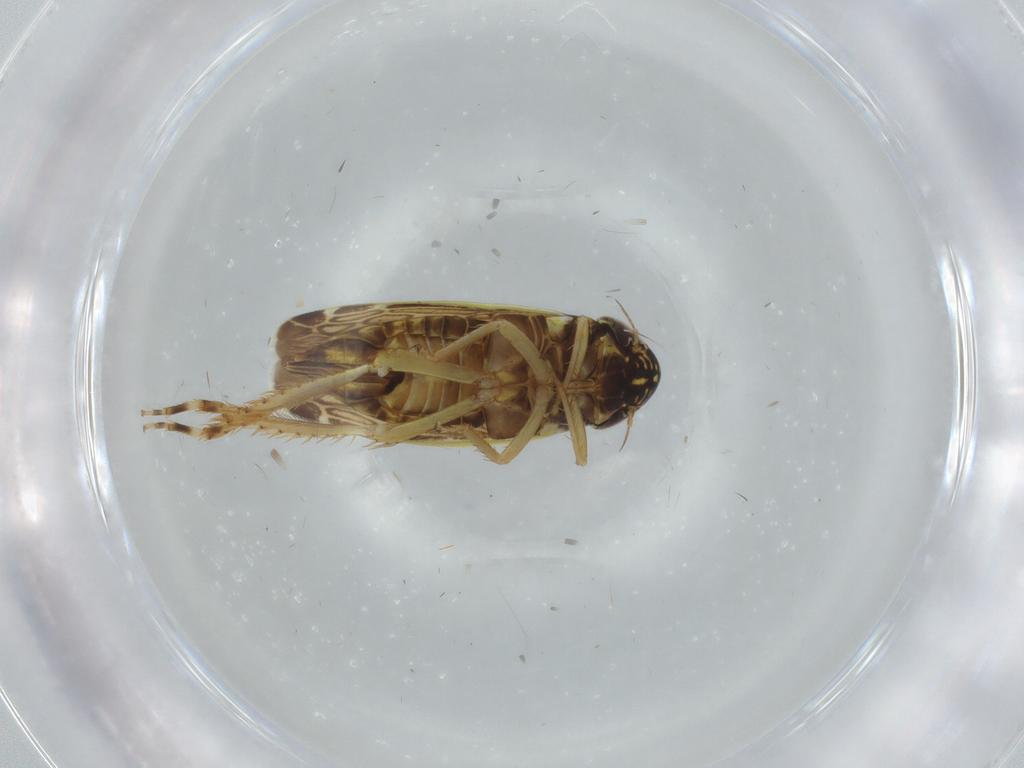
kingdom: Animalia
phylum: Arthropoda
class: Insecta
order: Hemiptera
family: Cicadellidae
